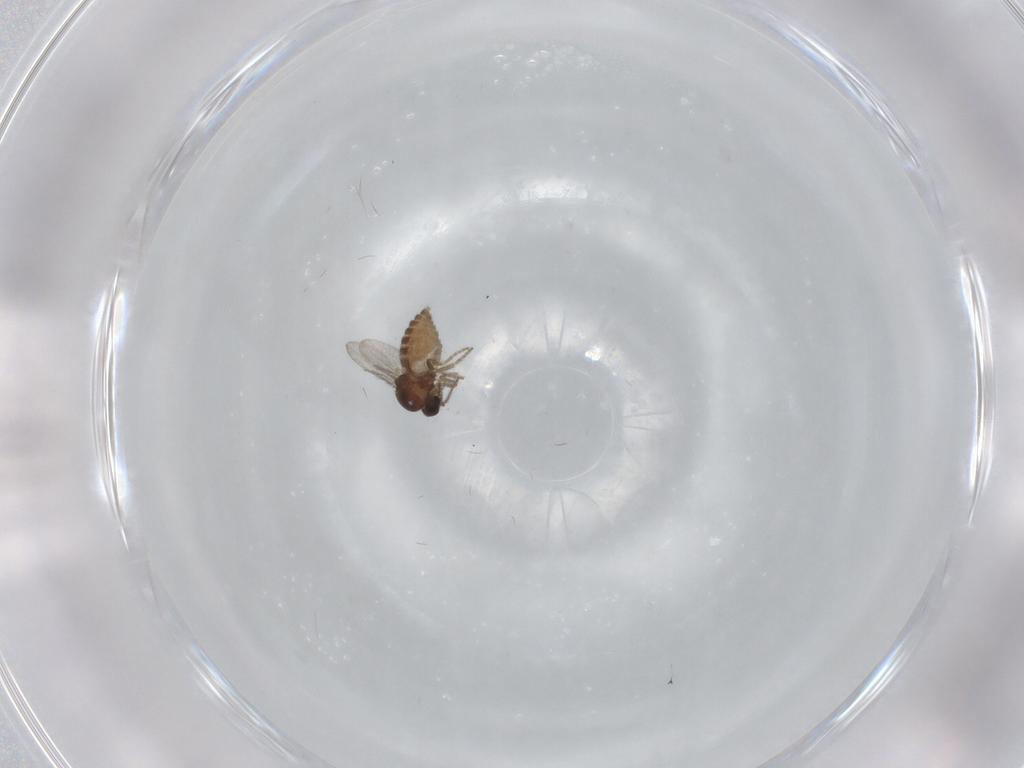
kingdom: Animalia
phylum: Arthropoda
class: Insecta
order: Diptera
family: Ceratopogonidae
